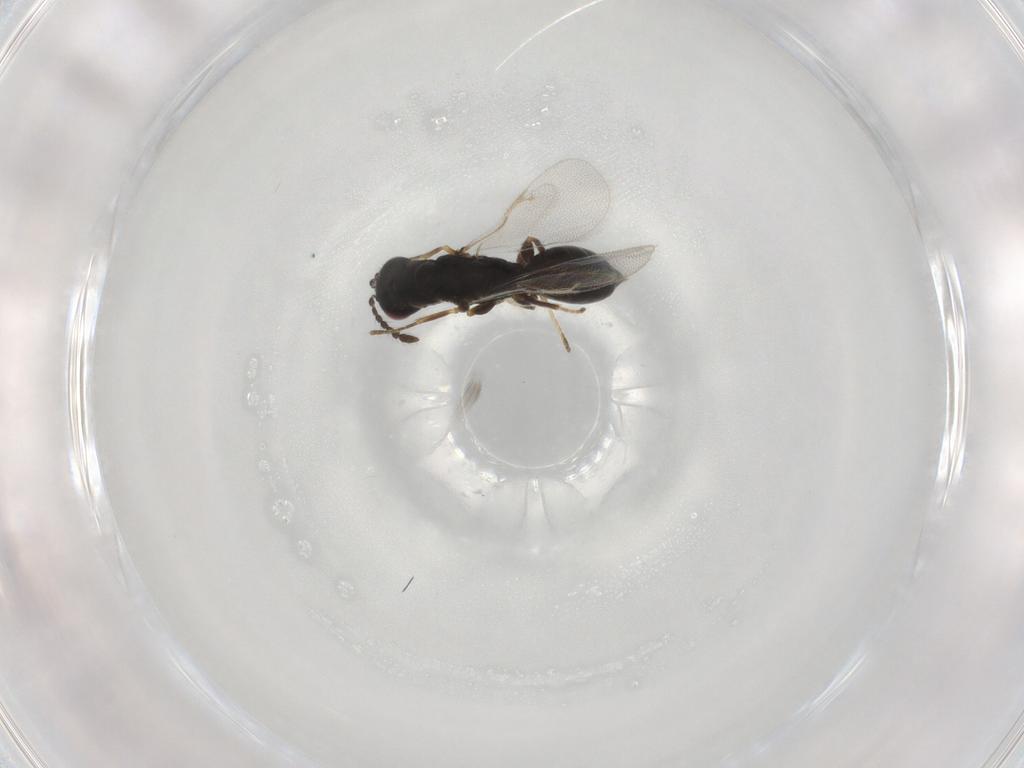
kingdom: Animalia
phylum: Arthropoda
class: Insecta
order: Hymenoptera
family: Eurytomidae
